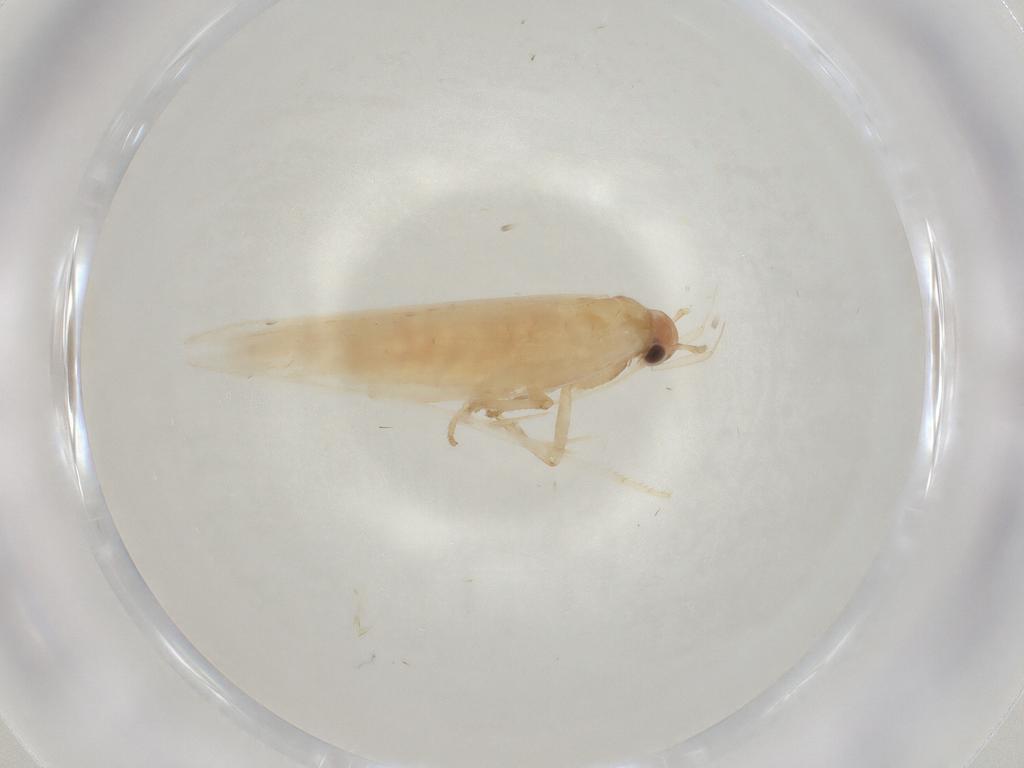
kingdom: Animalia
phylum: Arthropoda
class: Insecta
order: Lepidoptera
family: Gelechiidae
